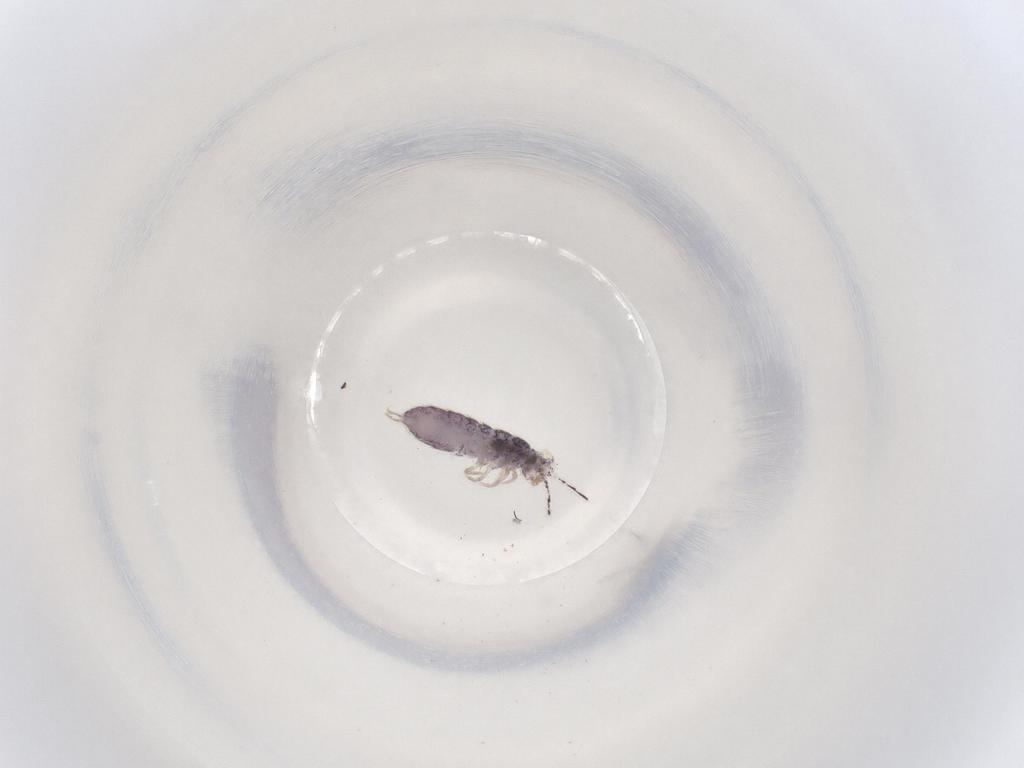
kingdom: Animalia
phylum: Arthropoda
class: Collembola
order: Entomobryomorpha
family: Isotomidae
